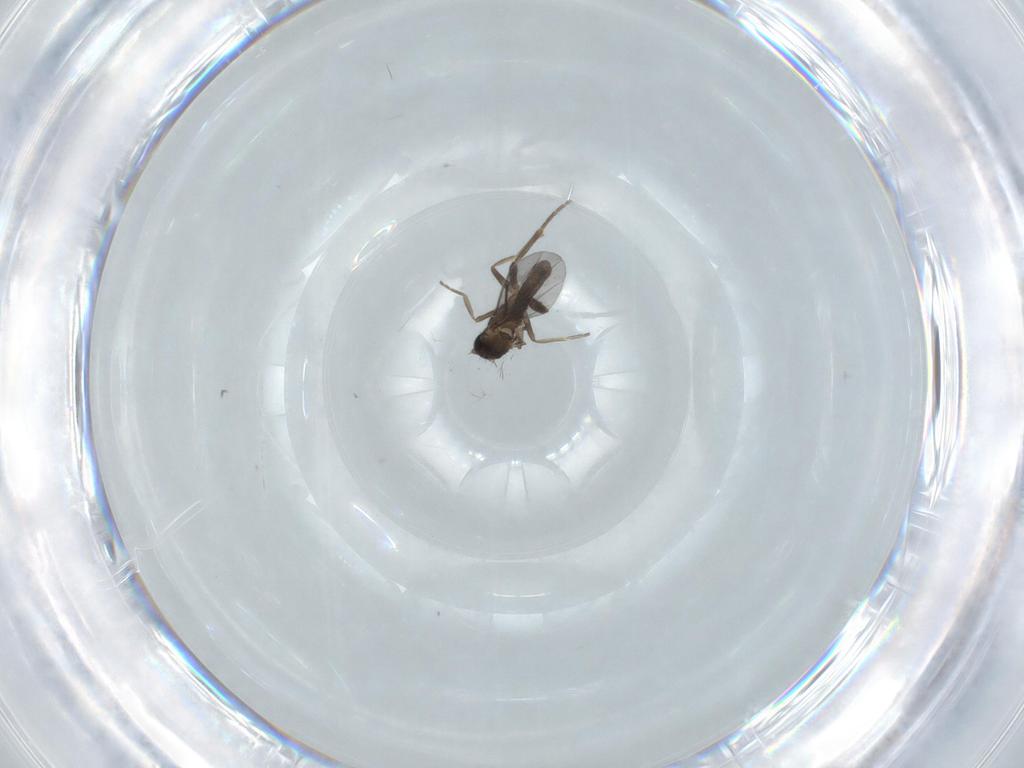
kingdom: Animalia
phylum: Arthropoda
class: Insecta
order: Diptera
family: Phoridae
